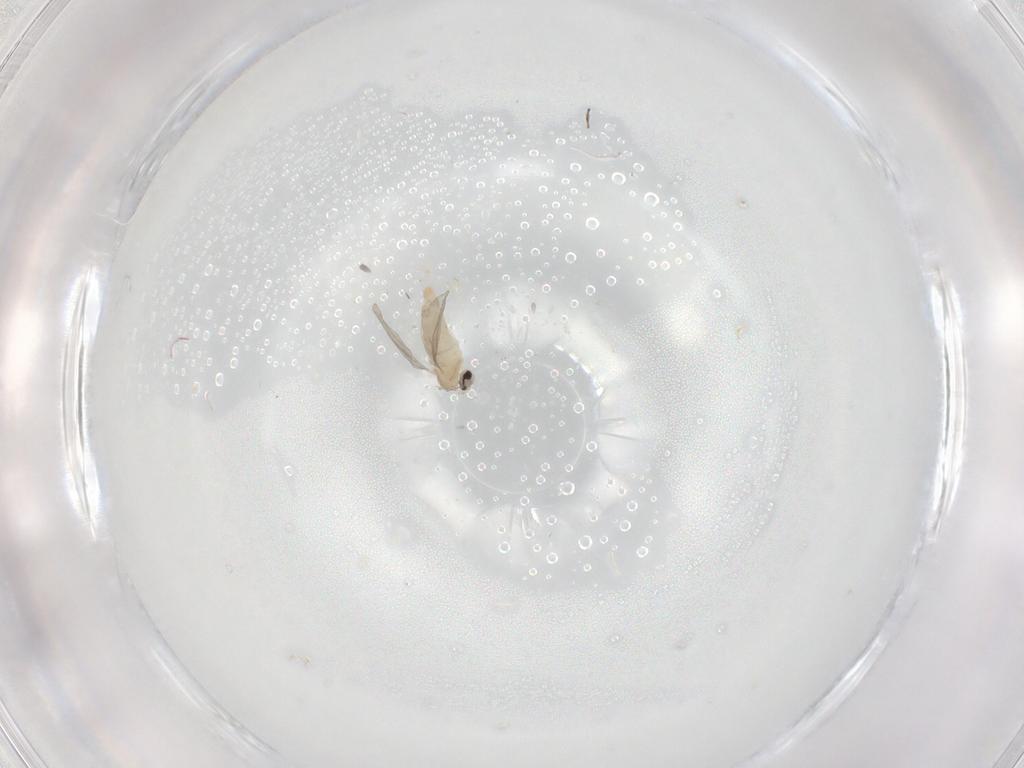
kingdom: Animalia
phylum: Arthropoda
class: Insecta
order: Diptera
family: Cecidomyiidae
